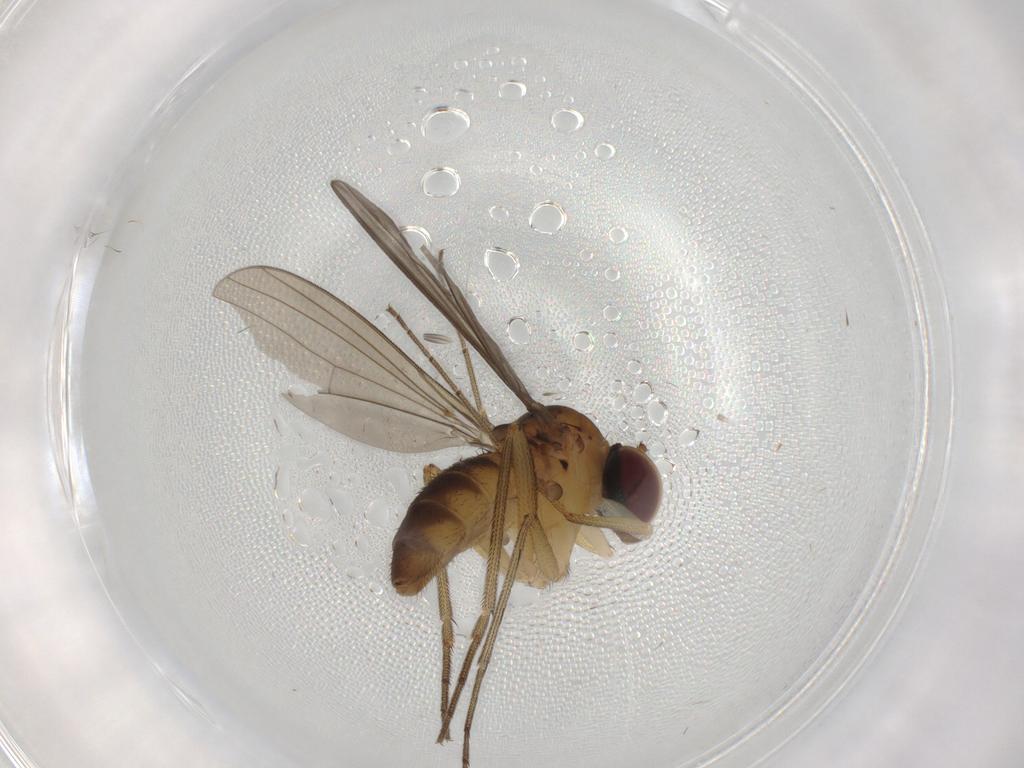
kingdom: Animalia
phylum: Arthropoda
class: Insecta
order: Diptera
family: Dolichopodidae
